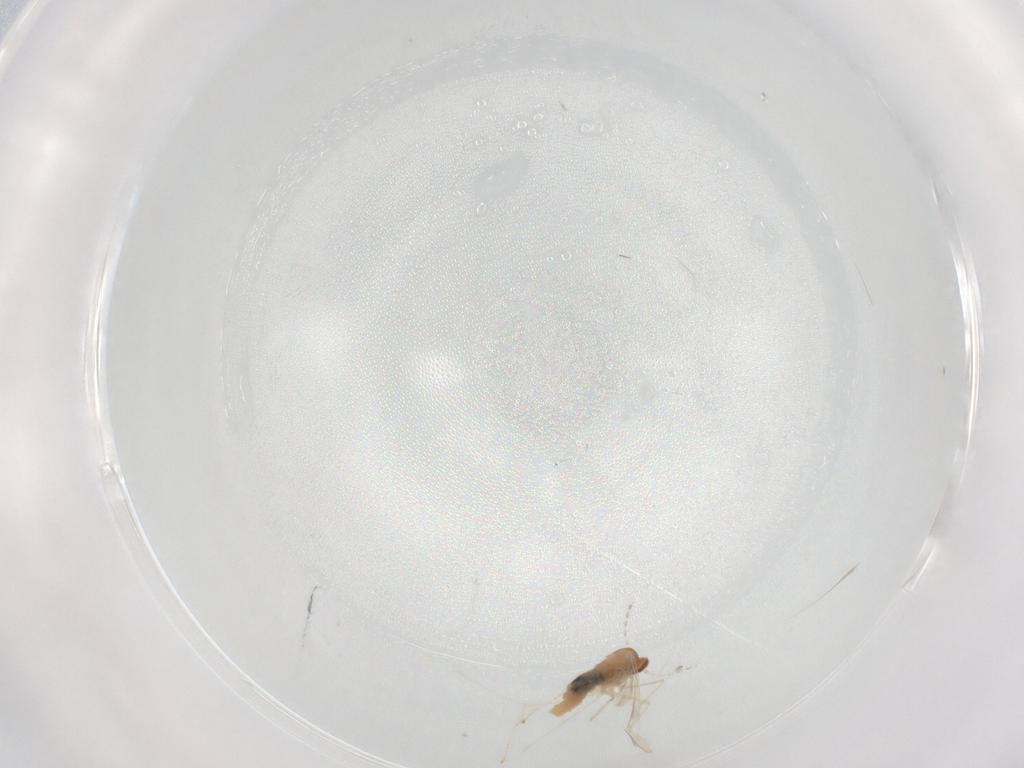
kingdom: Animalia
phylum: Arthropoda
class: Insecta
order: Diptera
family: Cecidomyiidae
